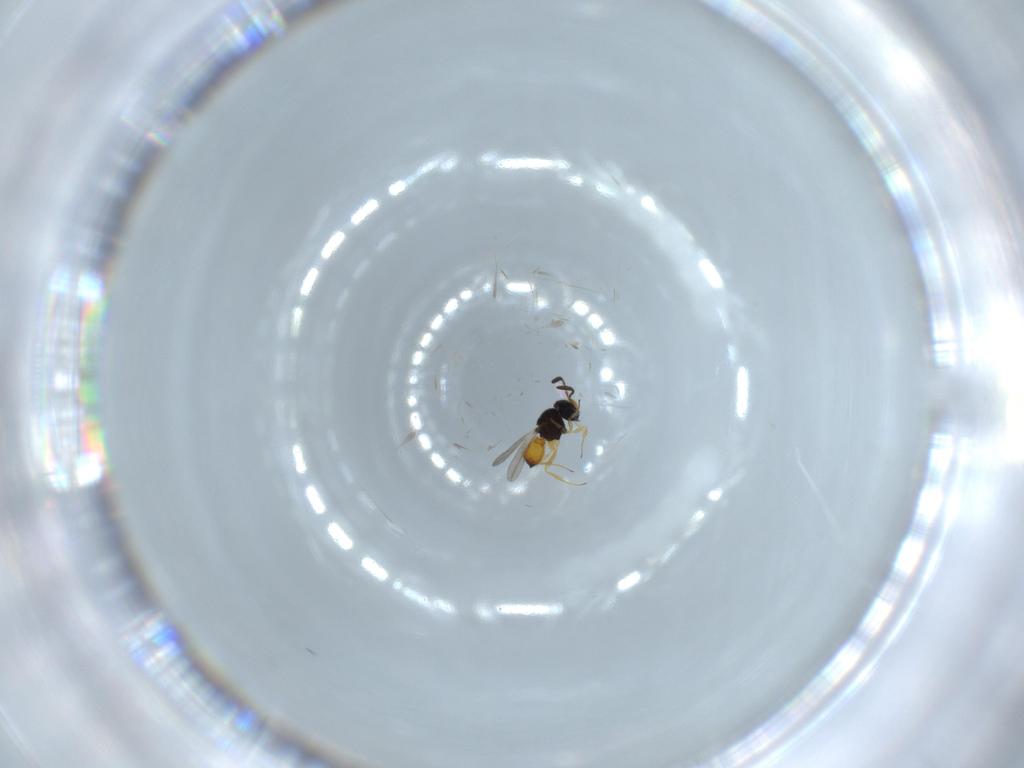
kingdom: Animalia
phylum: Arthropoda
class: Insecta
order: Hymenoptera
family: Scelionidae
